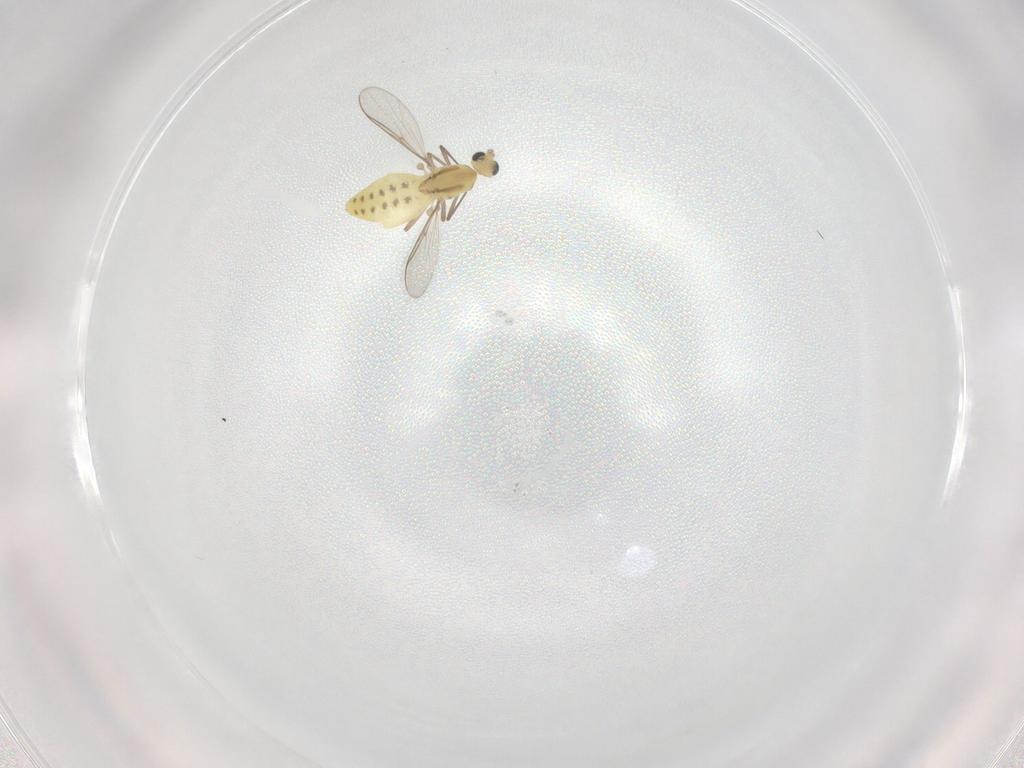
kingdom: Animalia
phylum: Arthropoda
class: Insecta
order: Diptera
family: Chironomidae
